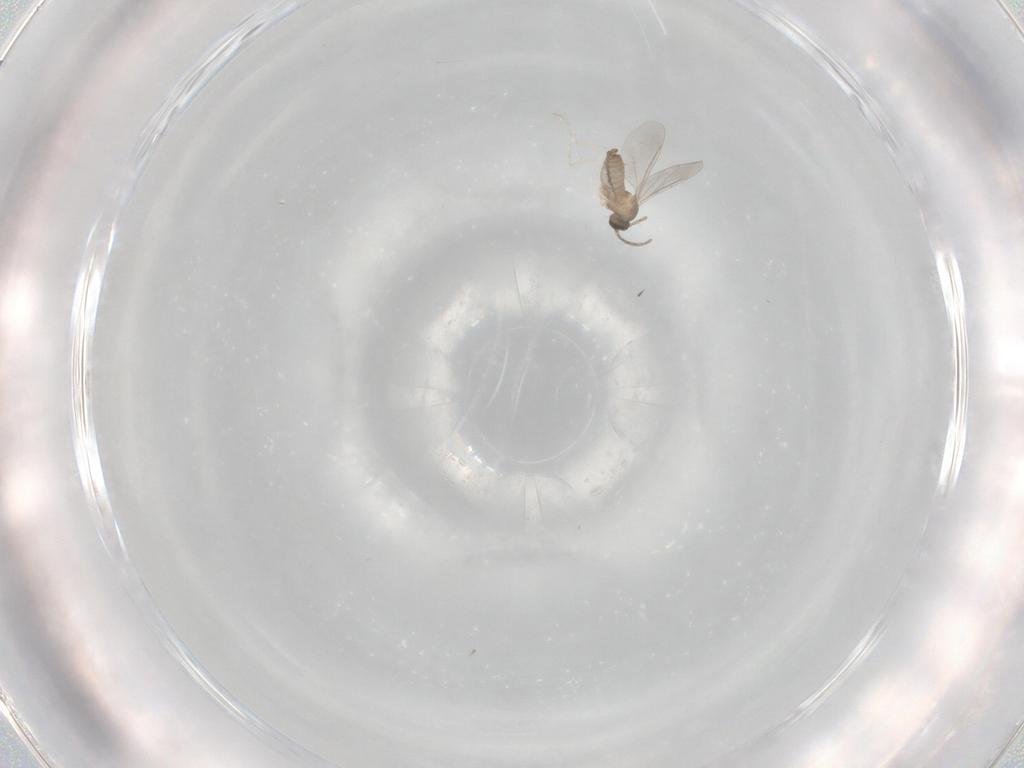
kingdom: Animalia
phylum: Arthropoda
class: Insecta
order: Diptera
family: Cecidomyiidae
